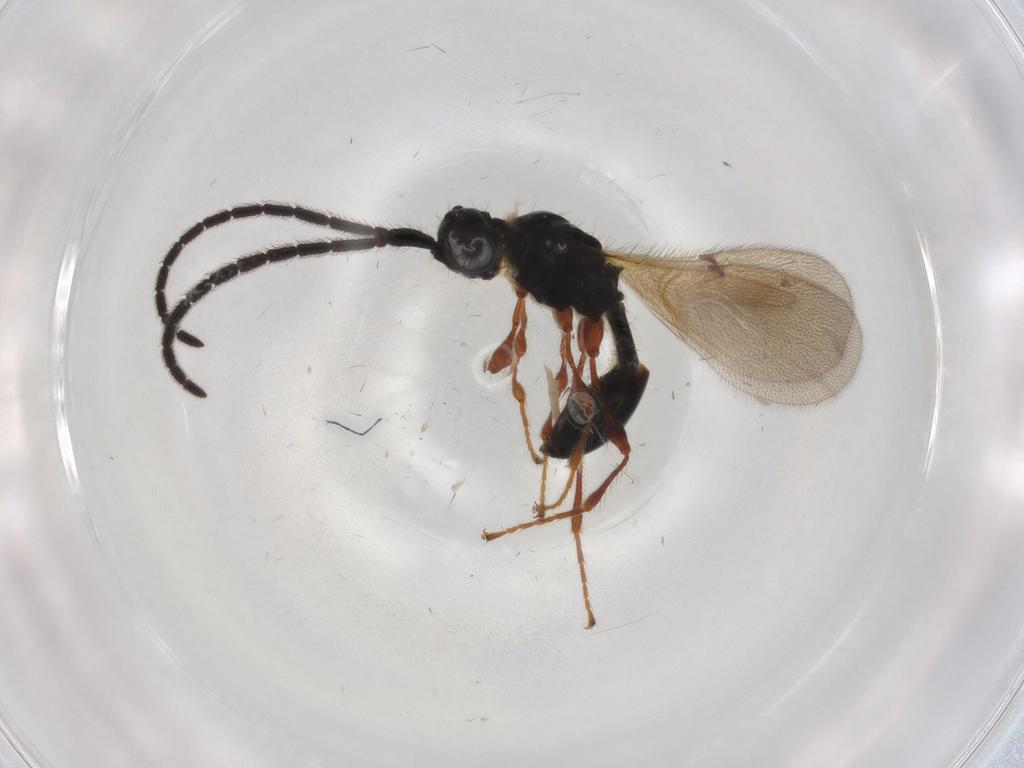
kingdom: Animalia
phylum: Arthropoda
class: Insecta
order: Hymenoptera
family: Diapriidae
